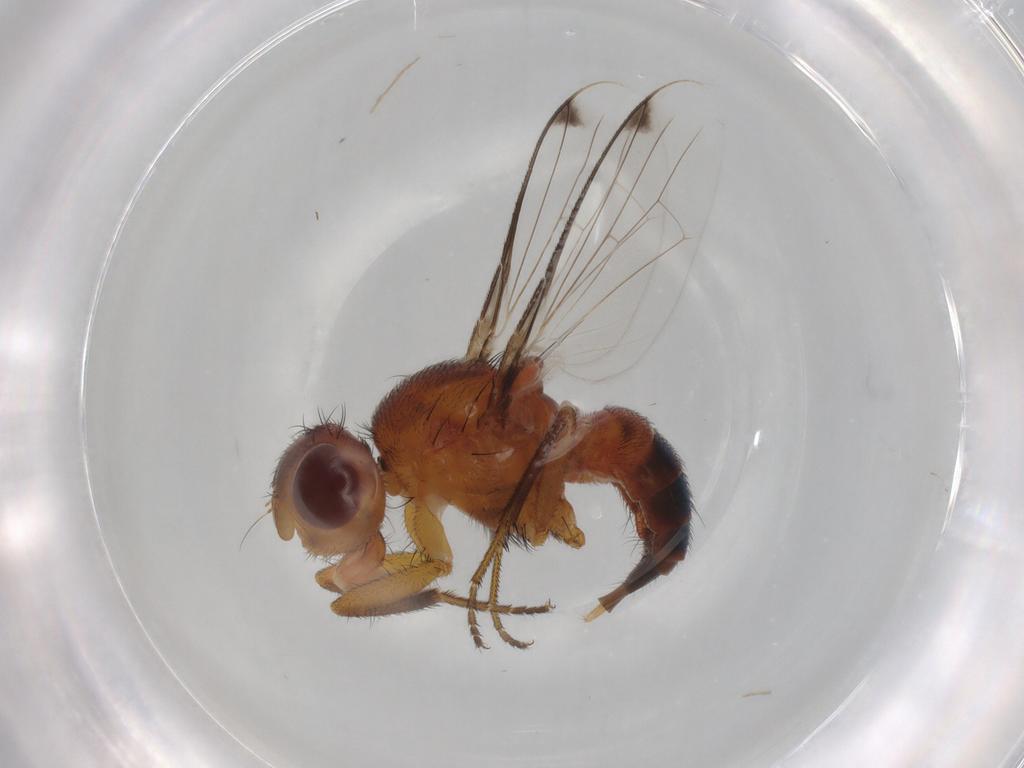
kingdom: Animalia
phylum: Arthropoda
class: Insecta
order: Diptera
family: Richardiidae
